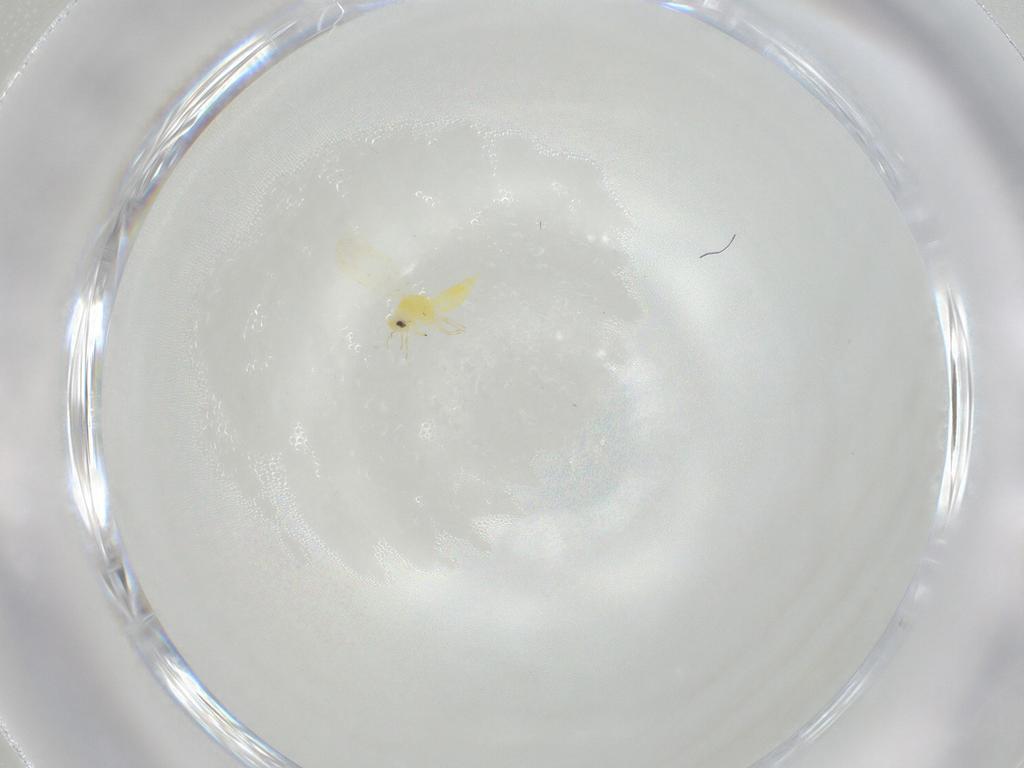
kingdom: Animalia
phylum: Arthropoda
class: Insecta
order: Hemiptera
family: Aleyrodidae
